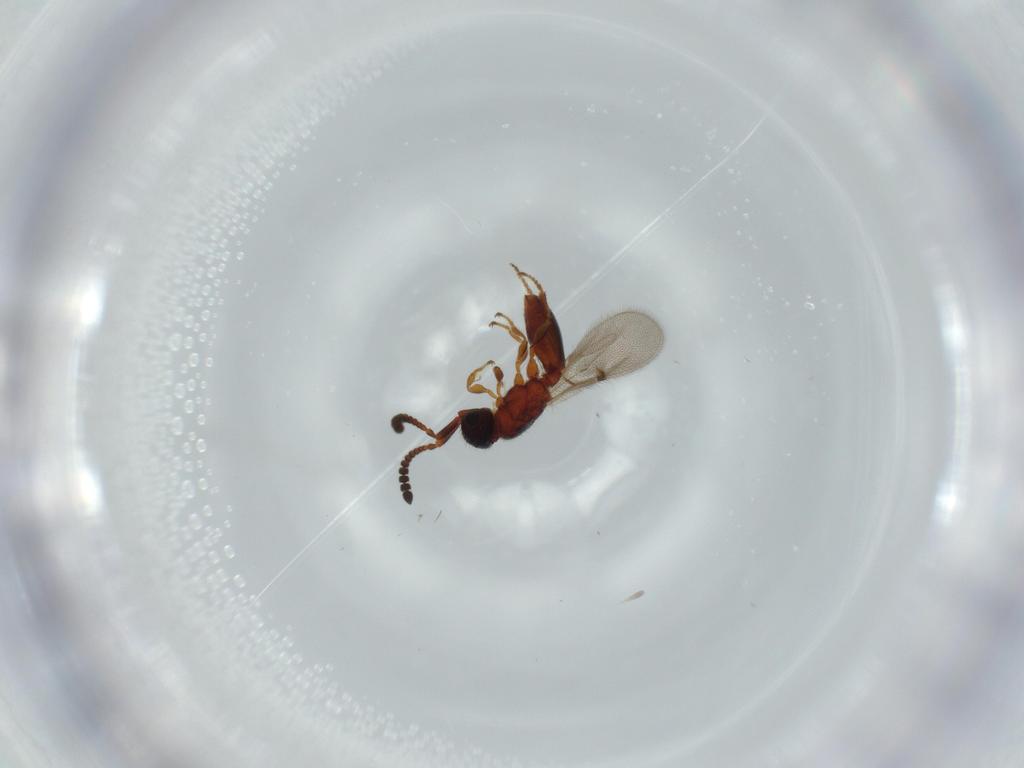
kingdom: Animalia
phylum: Arthropoda
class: Insecta
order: Hymenoptera
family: Diapriidae
